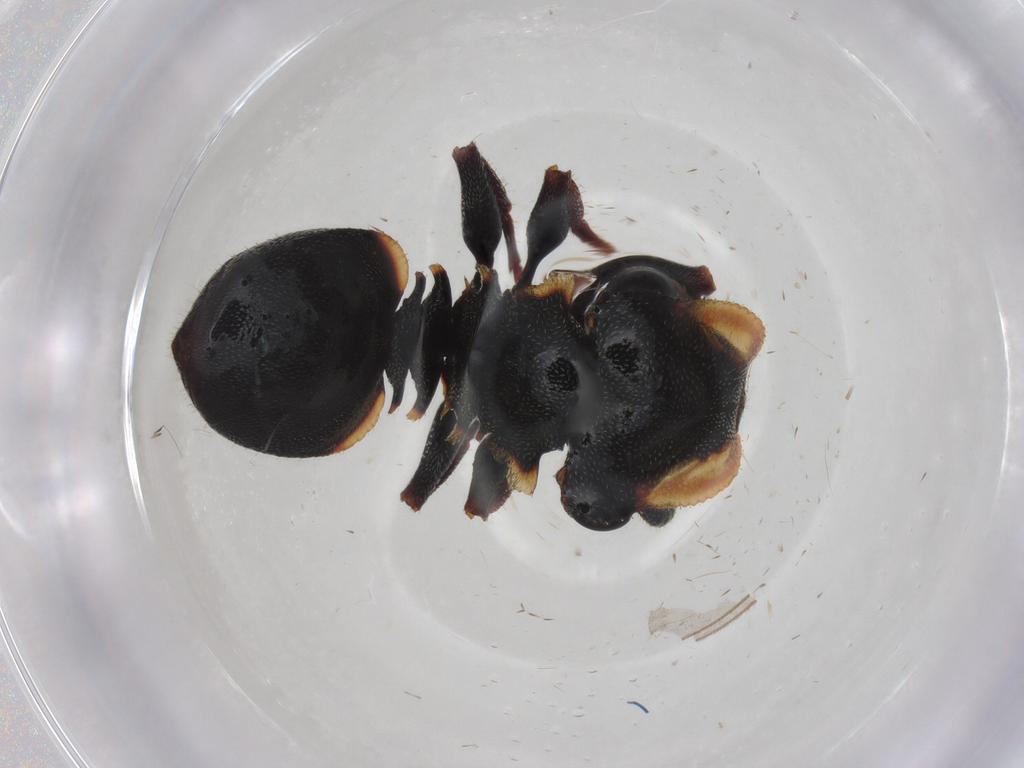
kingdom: Animalia
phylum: Arthropoda
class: Insecta
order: Hymenoptera
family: Formicidae
